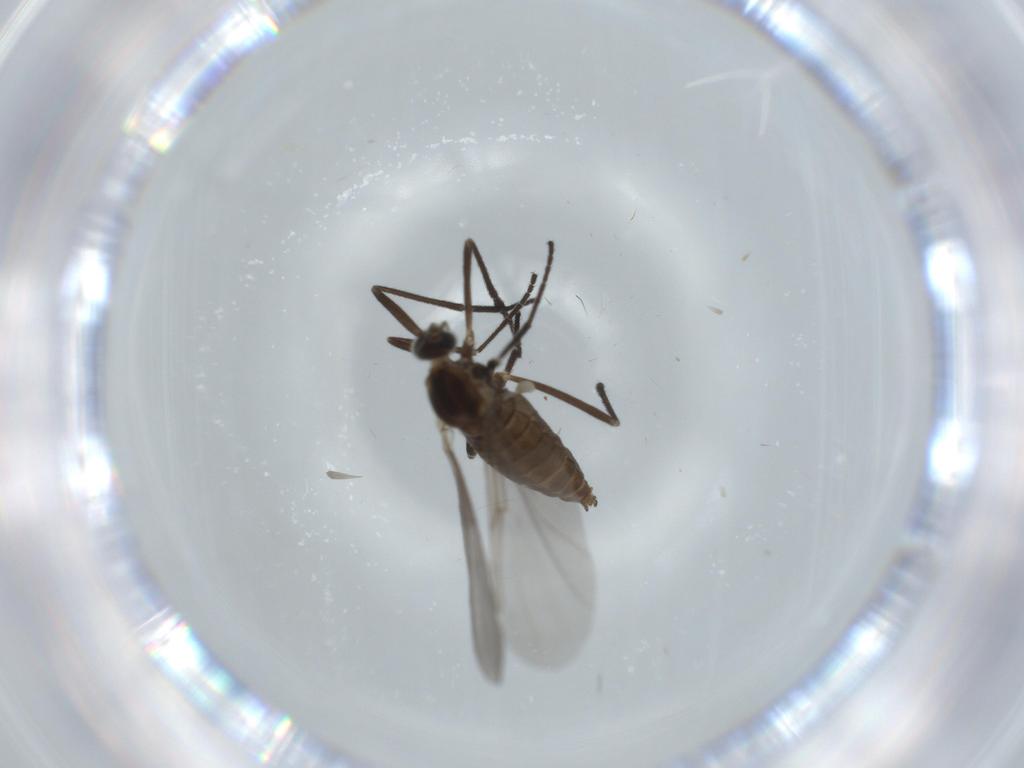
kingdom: Animalia
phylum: Arthropoda
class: Insecta
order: Diptera
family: Cecidomyiidae
